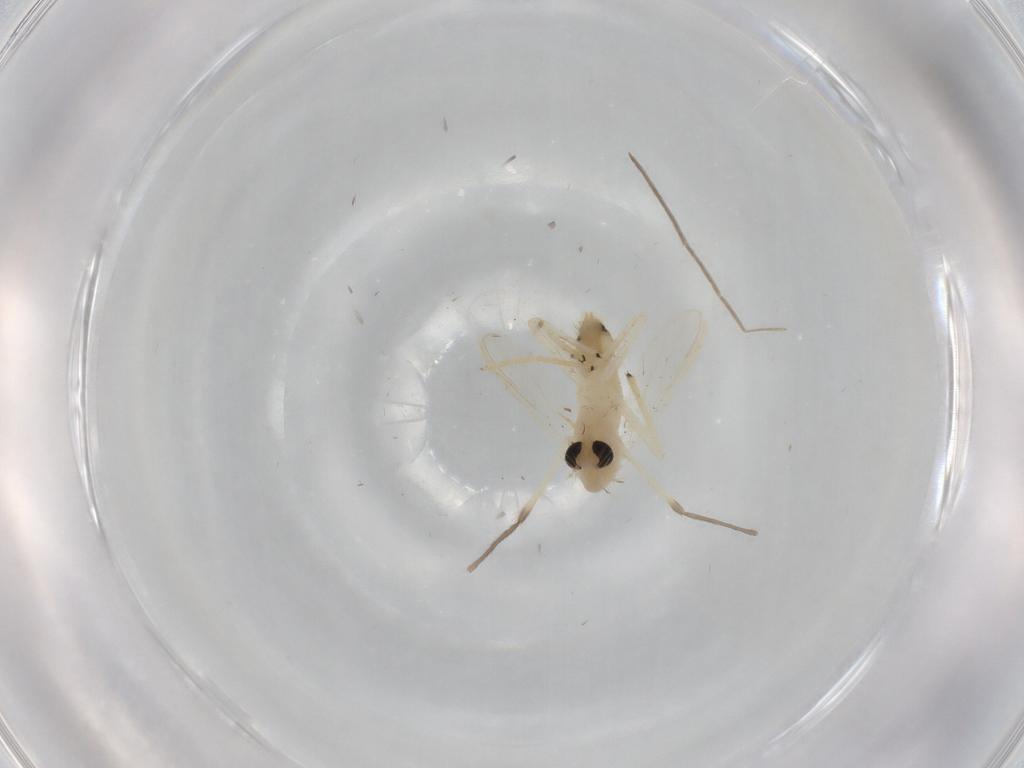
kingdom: Animalia
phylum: Arthropoda
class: Insecta
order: Diptera
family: Chironomidae
